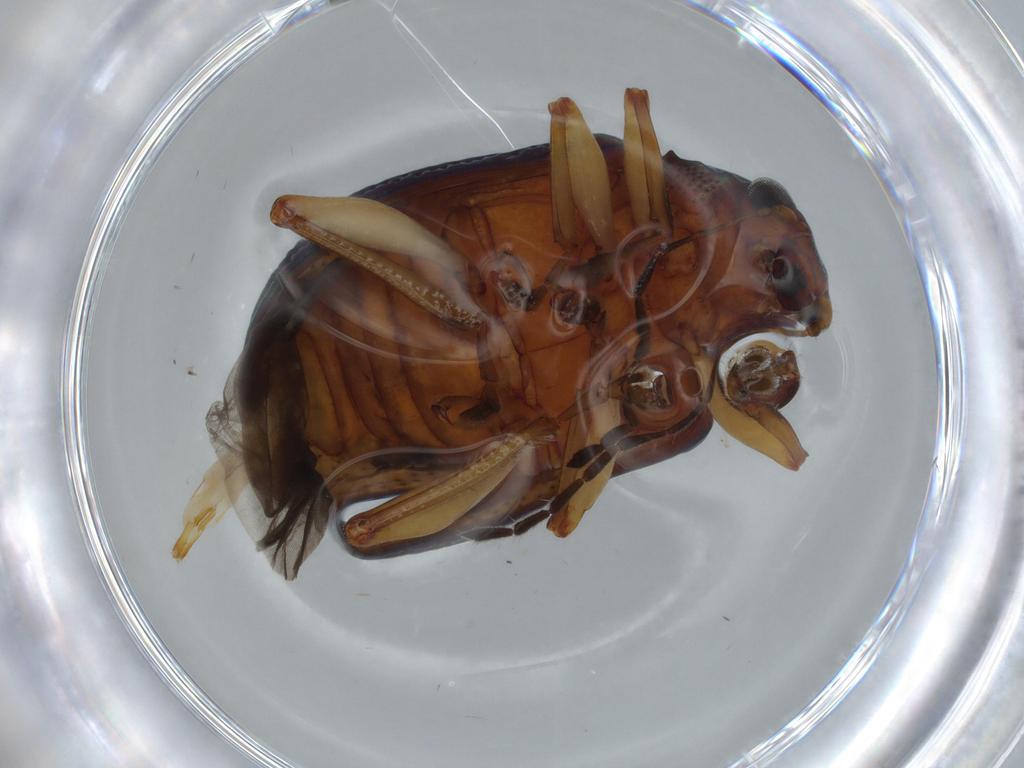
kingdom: Animalia
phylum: Arthropoda
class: Insecta
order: Coleoptera
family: Chrysomelidae
